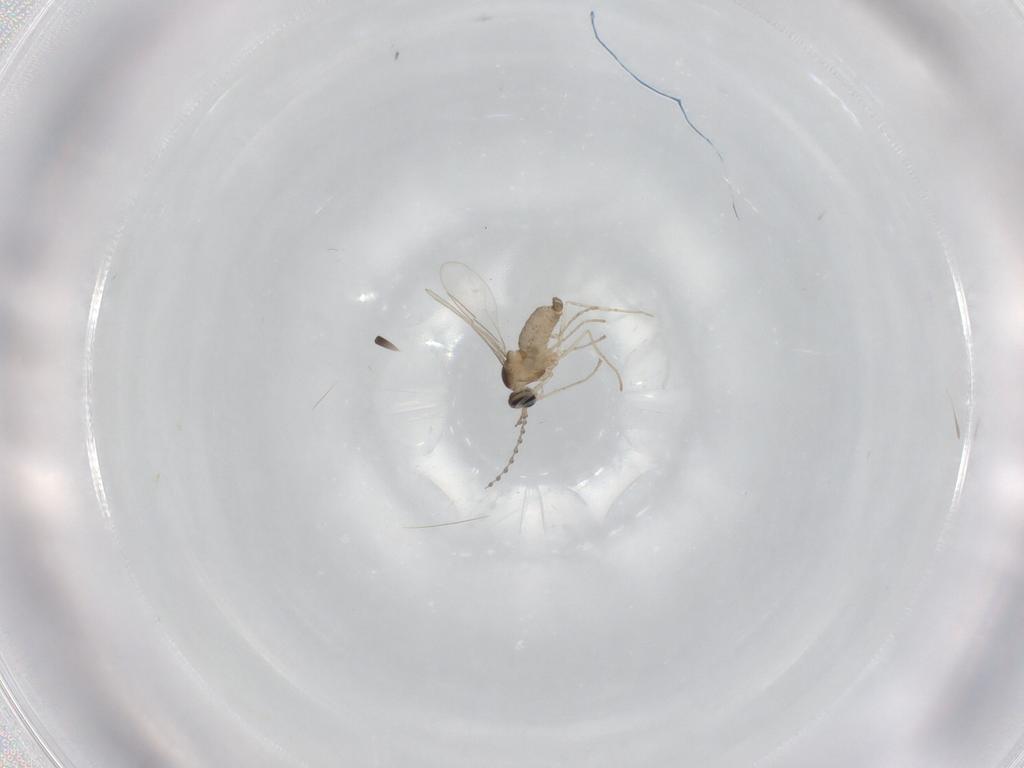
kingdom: Animalia
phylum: Arthropoda
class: Insecta
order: Diptera
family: Cecidomyiidae
